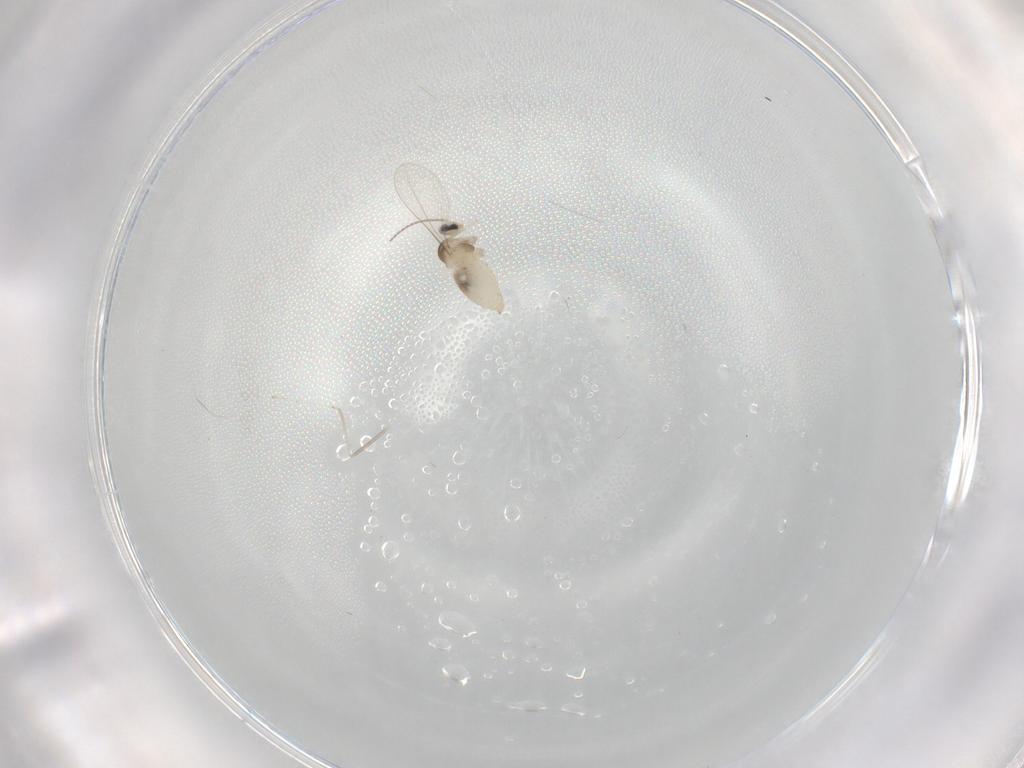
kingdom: Animalia
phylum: Arthropoda
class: Insecta
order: Diptera
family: Cecidomyiidae
